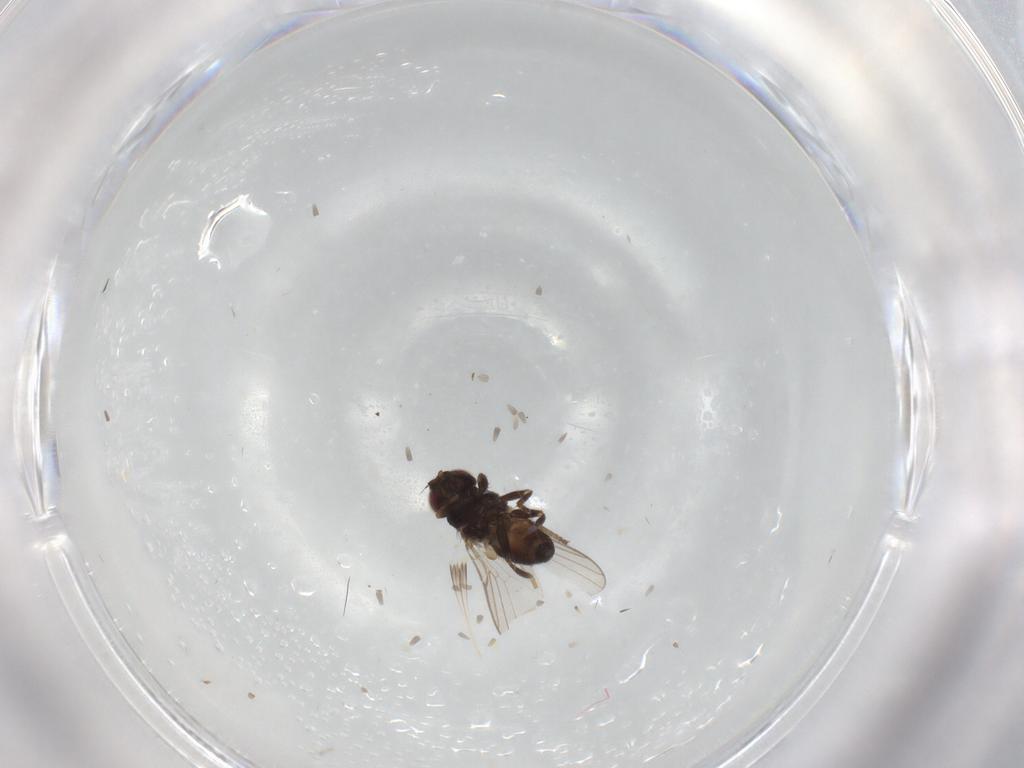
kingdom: Animalia
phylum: Arthropoda
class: Insecta
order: Diptera
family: Chloropidae
